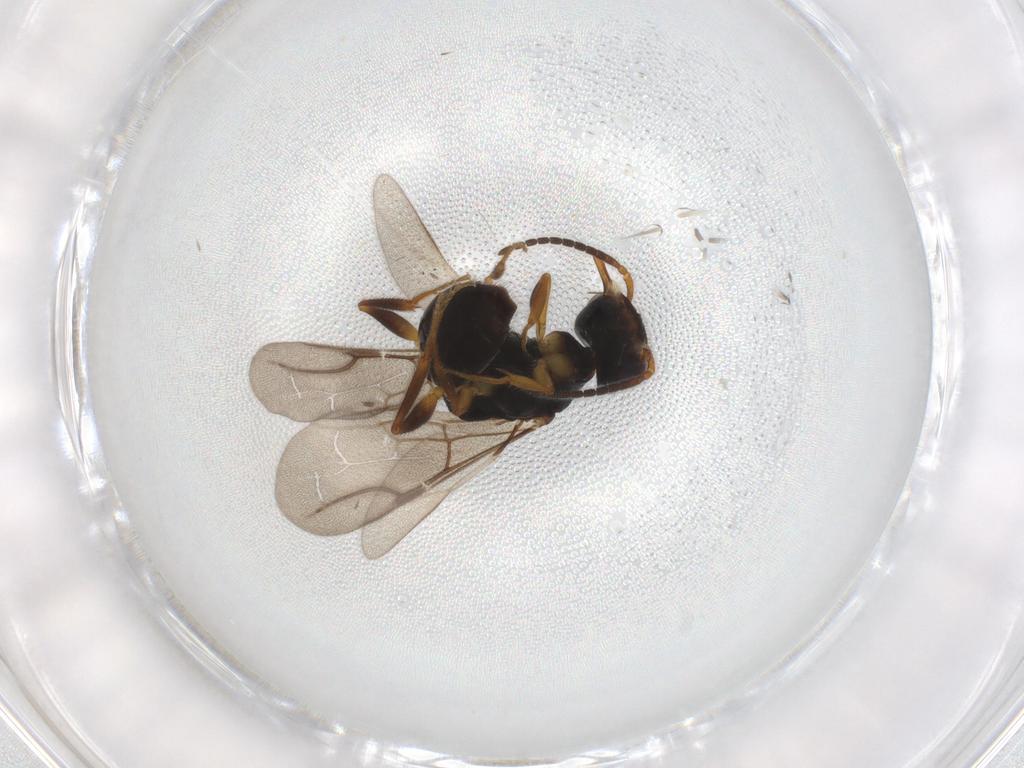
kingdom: Animalia
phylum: Arthropoda
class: Insecta
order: Hymenoptera
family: Bethylidae
